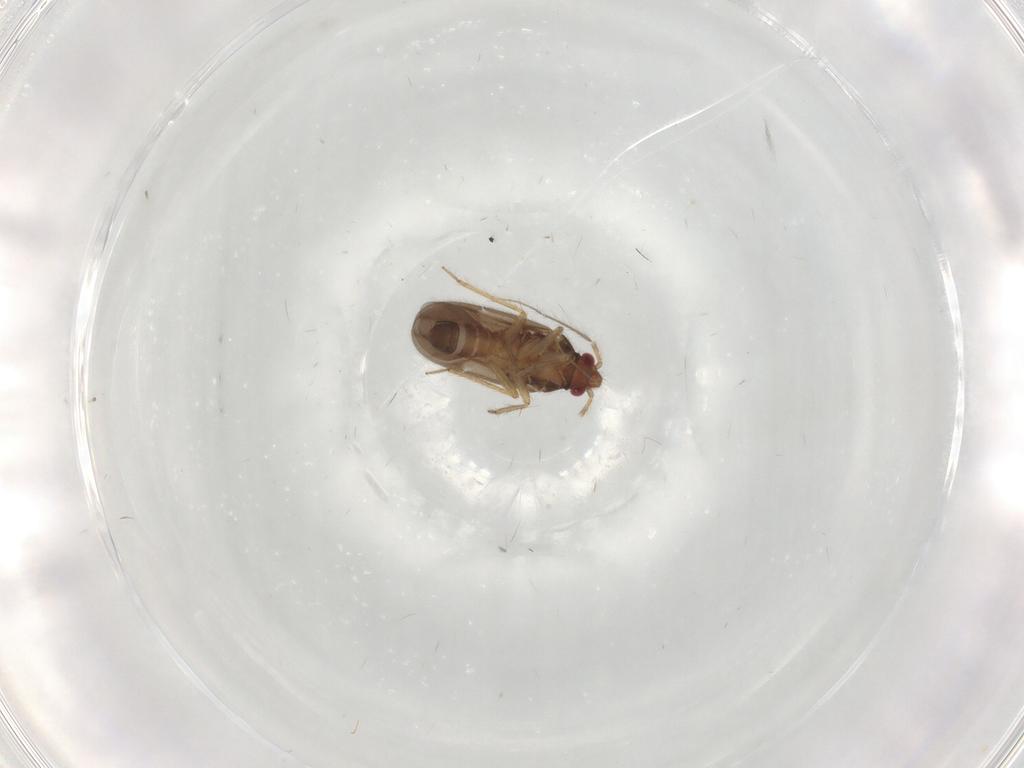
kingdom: Animalia
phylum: Arthropoda
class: Insecta
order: Hemiptera
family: Ceratocombidae
